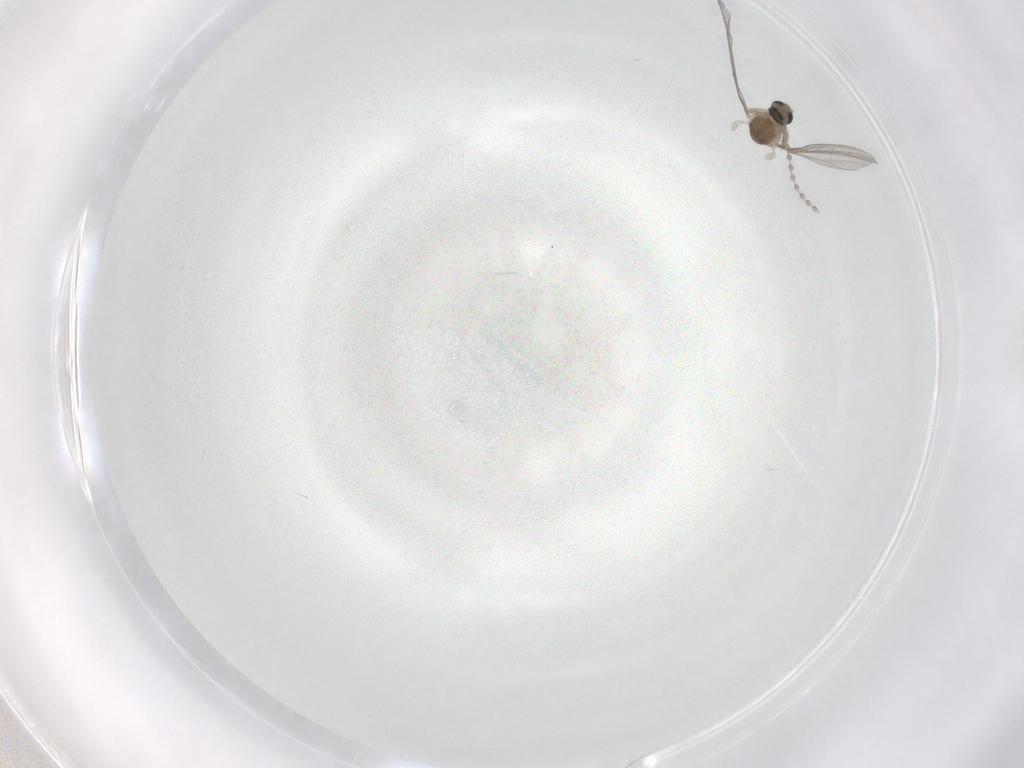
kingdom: Animalia
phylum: Arthropoda
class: Insecta
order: Diptera
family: Cecidomyiidae
